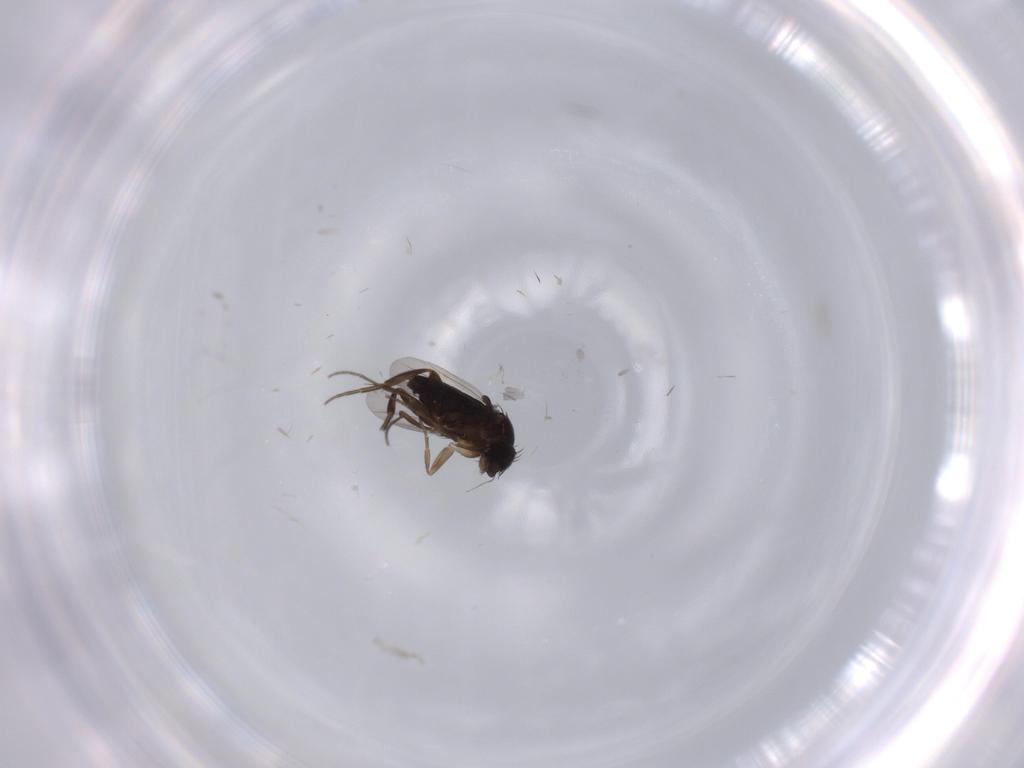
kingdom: Animalia
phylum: Arthropoda
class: Insecta
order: Diptera
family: Phoridae
